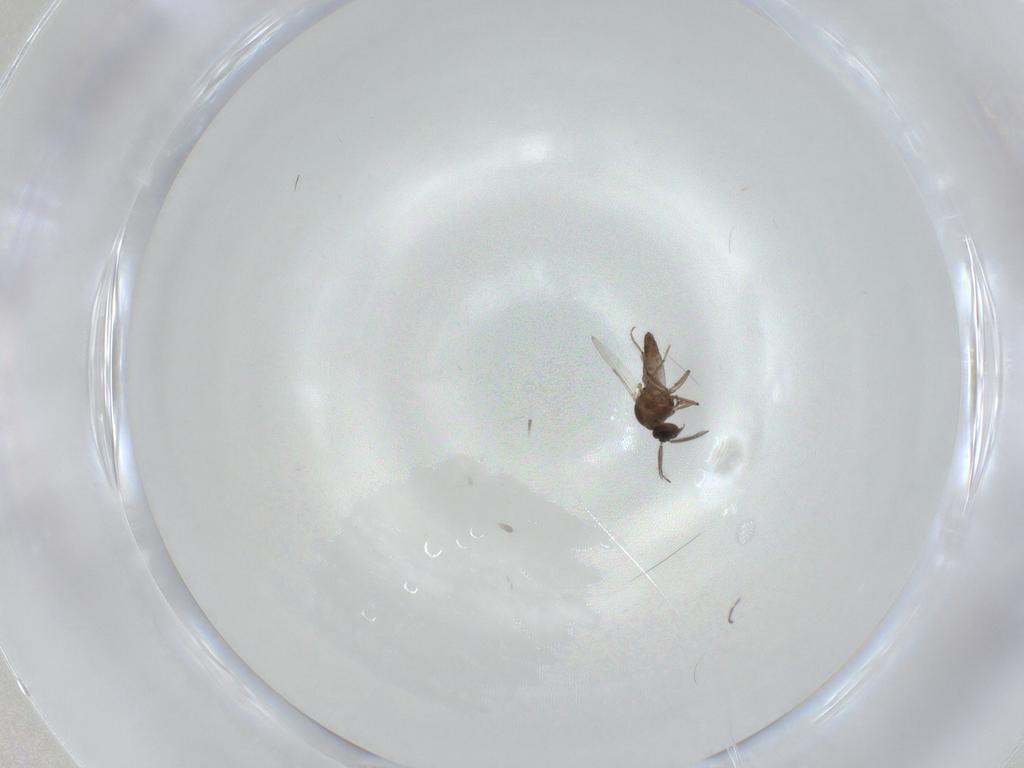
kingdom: Animalia
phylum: Arthropoda
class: Insecta
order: Diptera
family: Ceratopogonidae
